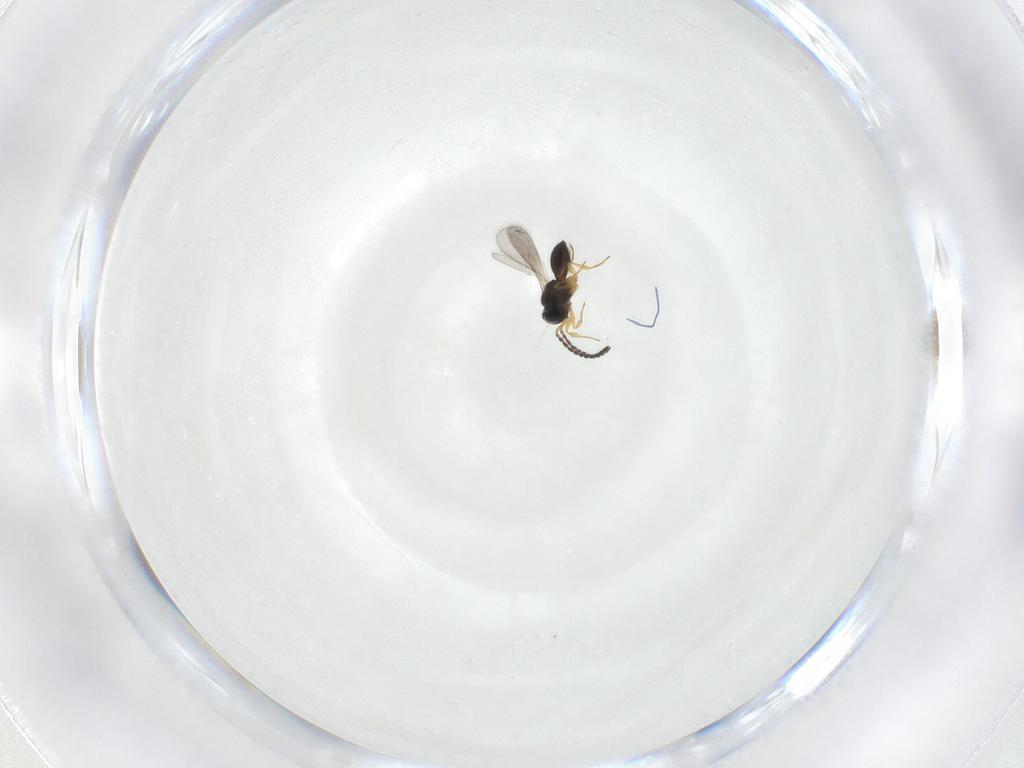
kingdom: Animalia
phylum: Arthropoda
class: Insecta
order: Hymenoptera
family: Scelionidae
